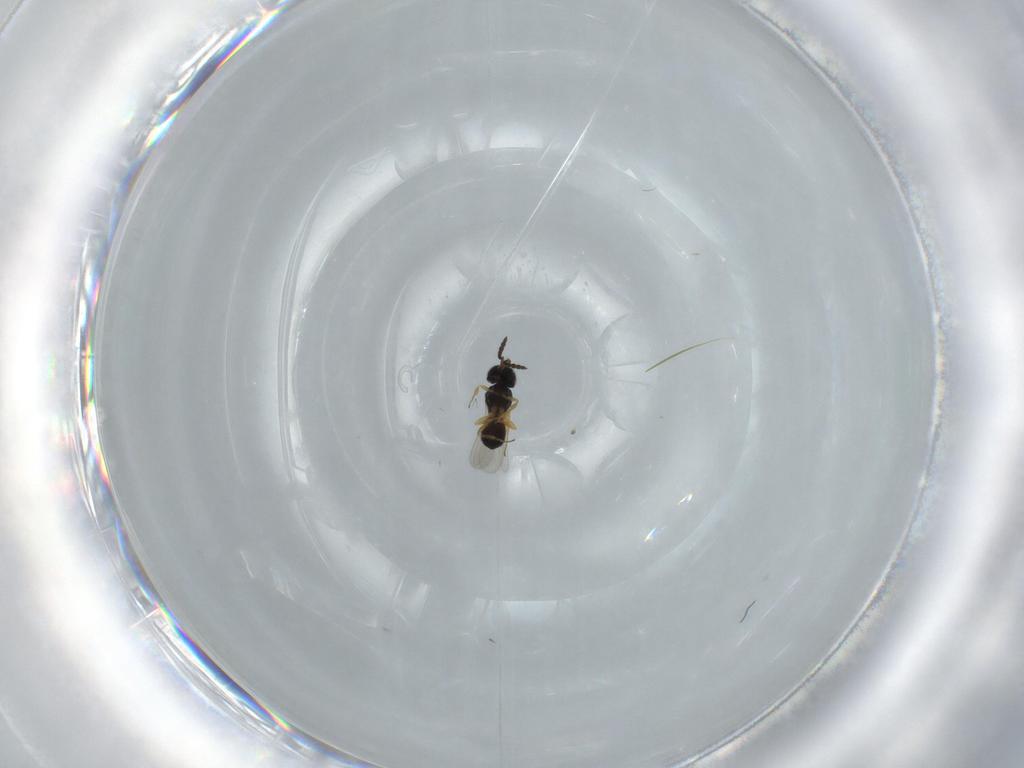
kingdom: Animalia
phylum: Arthropoda
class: Insecta
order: Hymenoptera
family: Scelionidae
